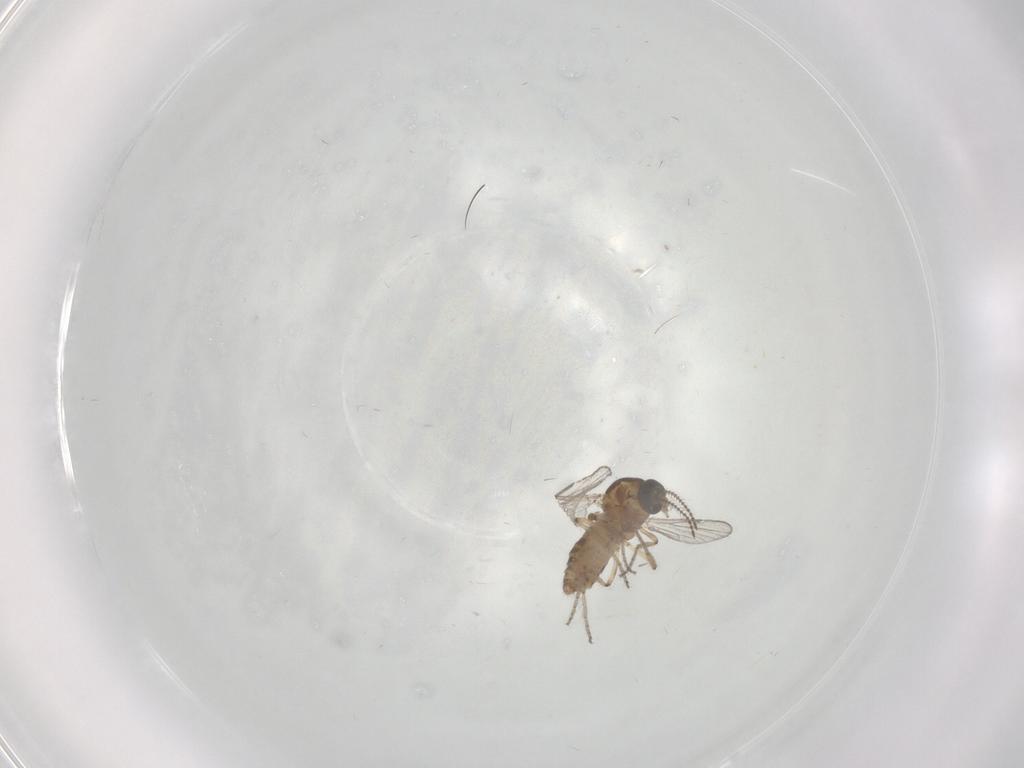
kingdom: Animalia
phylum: Arthropoda
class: Insecta
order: Diptera
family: Ceratopogonidae
